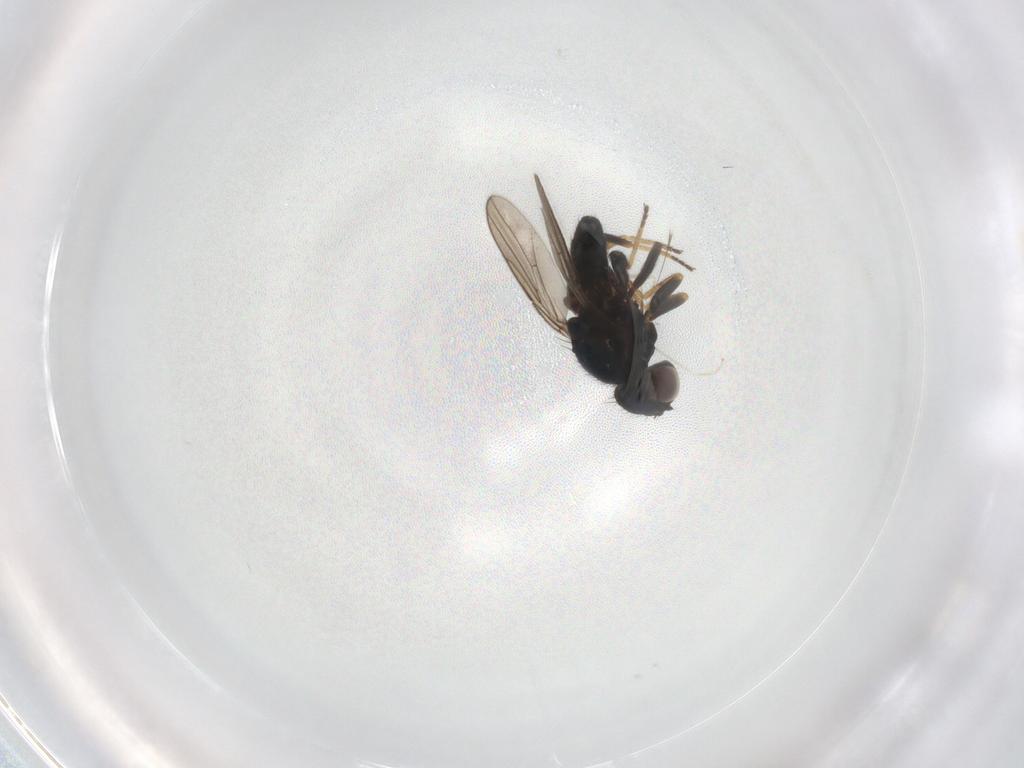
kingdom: Animalia
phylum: Arthropoda
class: Insecta
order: Diptera
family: Chloropidae
